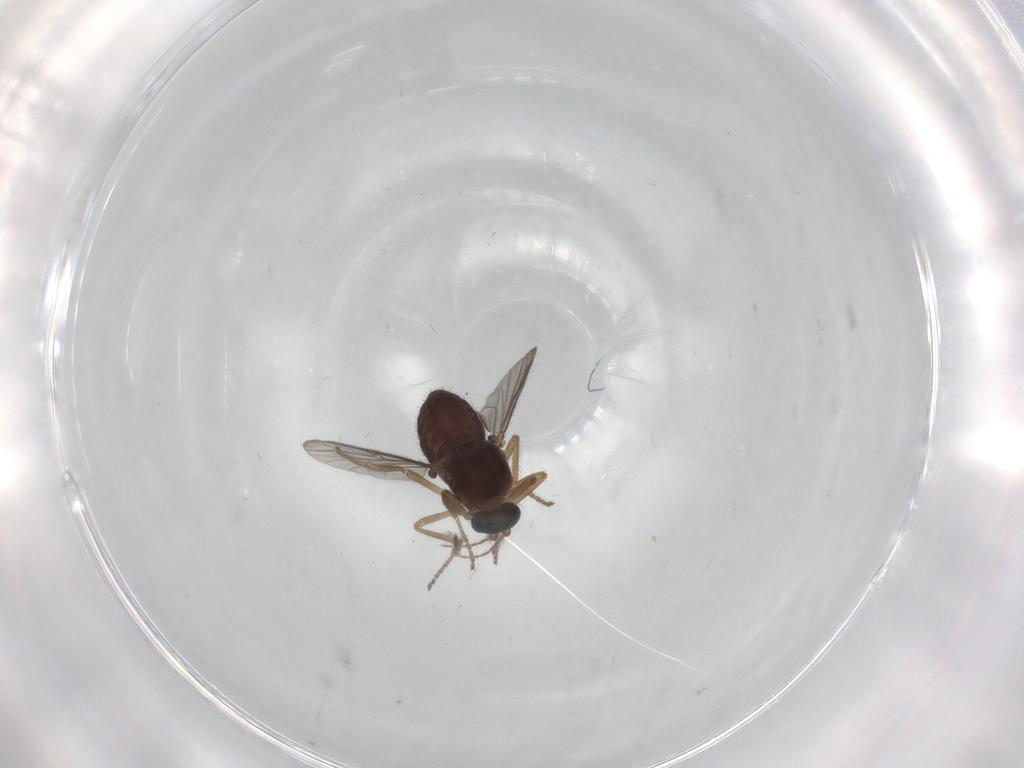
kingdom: Animalia
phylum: Arthropoda
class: Insecta
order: Diptera
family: Ceratopogonidae
